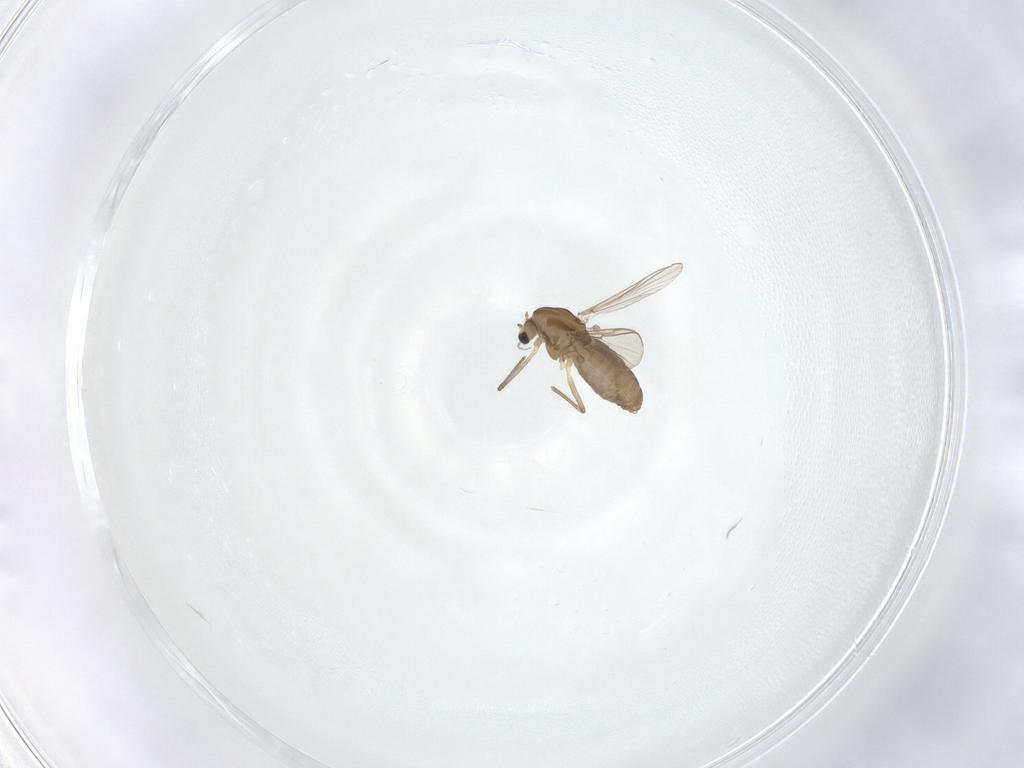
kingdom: Animalia
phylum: Arthropoda
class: Insecta
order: Diptera
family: Chironomidae
